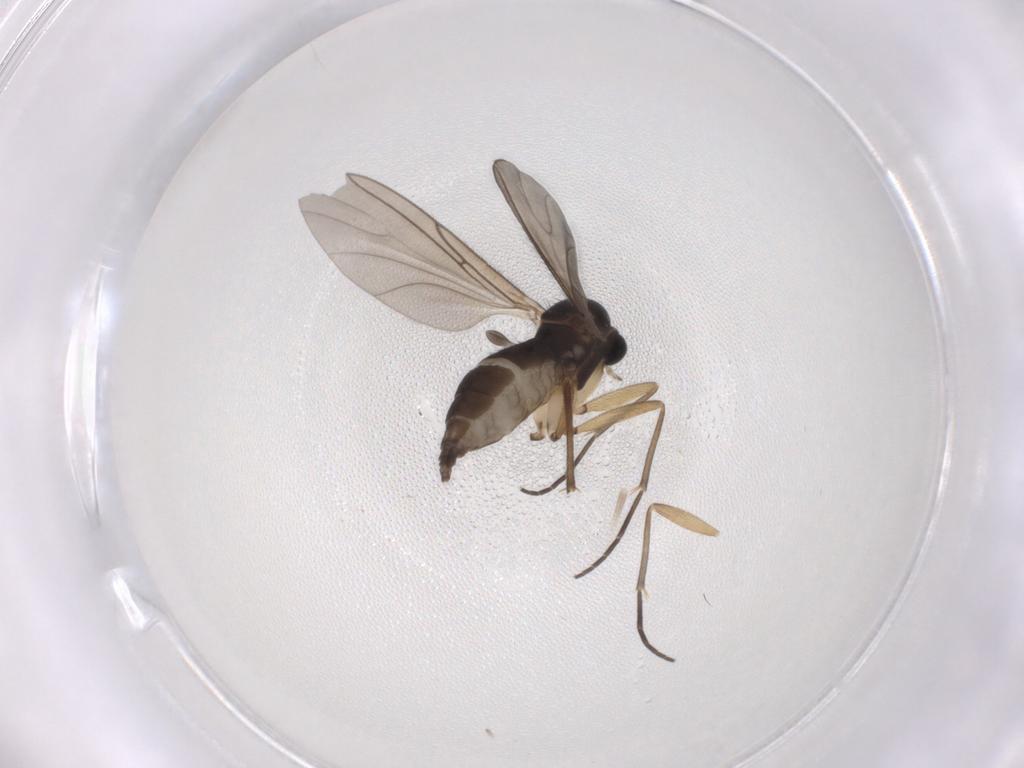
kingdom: Animalia
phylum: Arthropoda
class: Insecta
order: Diptera
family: Sciaridae
